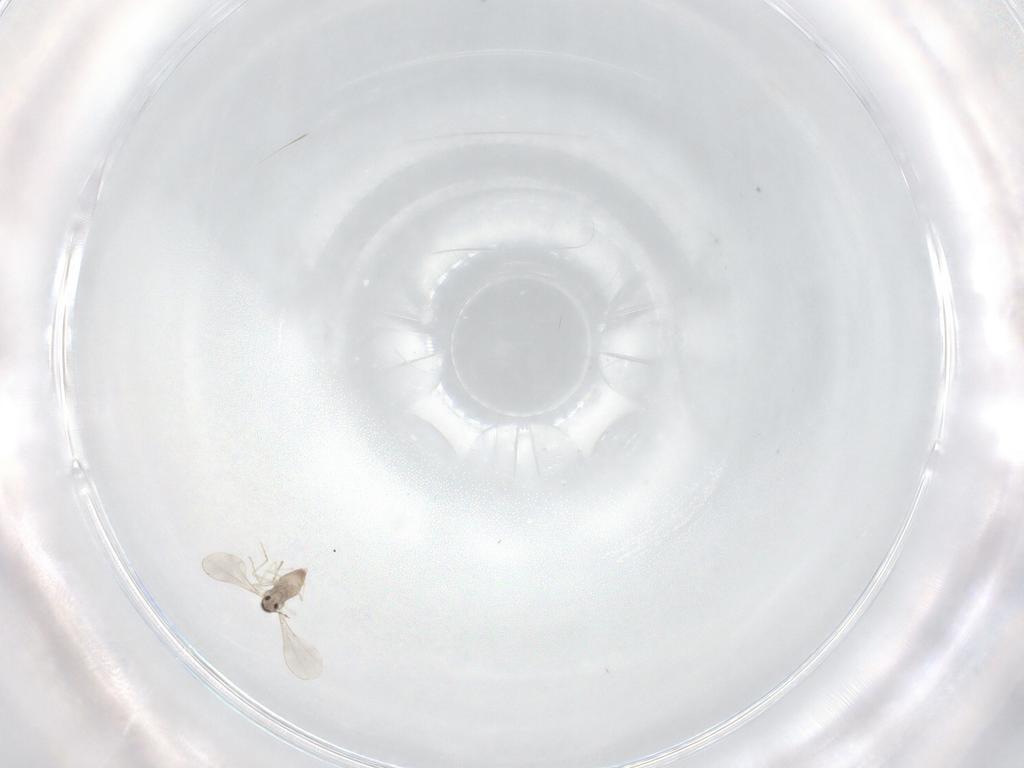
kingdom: Animalia
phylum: Arthropoda
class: Insecta
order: Diptera
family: Cecidomyiidae
